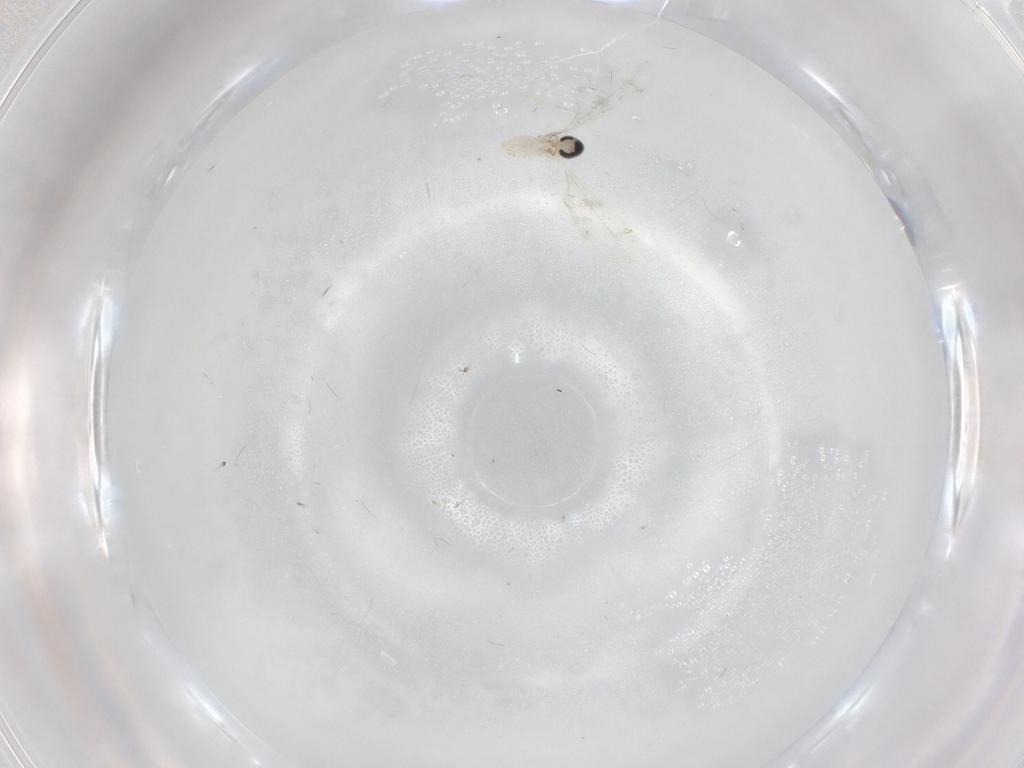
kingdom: Animalia
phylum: Arthropoda
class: Insecta
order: Diptera
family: Cecidomyiidae
